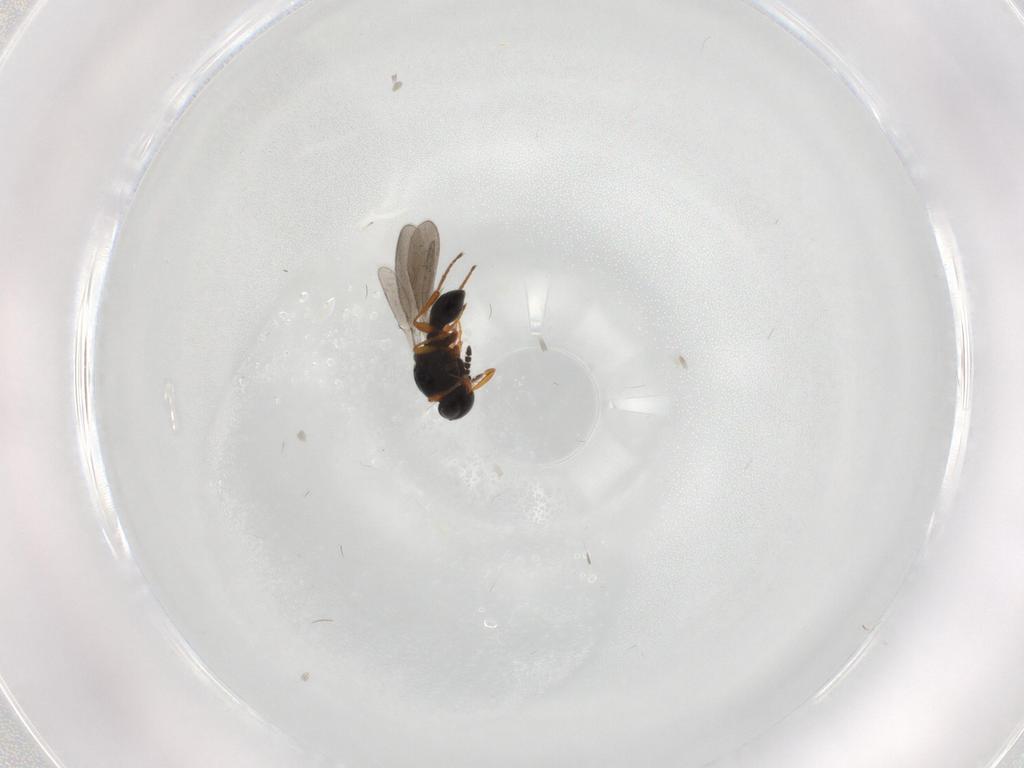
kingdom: Animalia
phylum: Arthropoda
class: Insecta
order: Hymenoptera
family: Platygastridae
